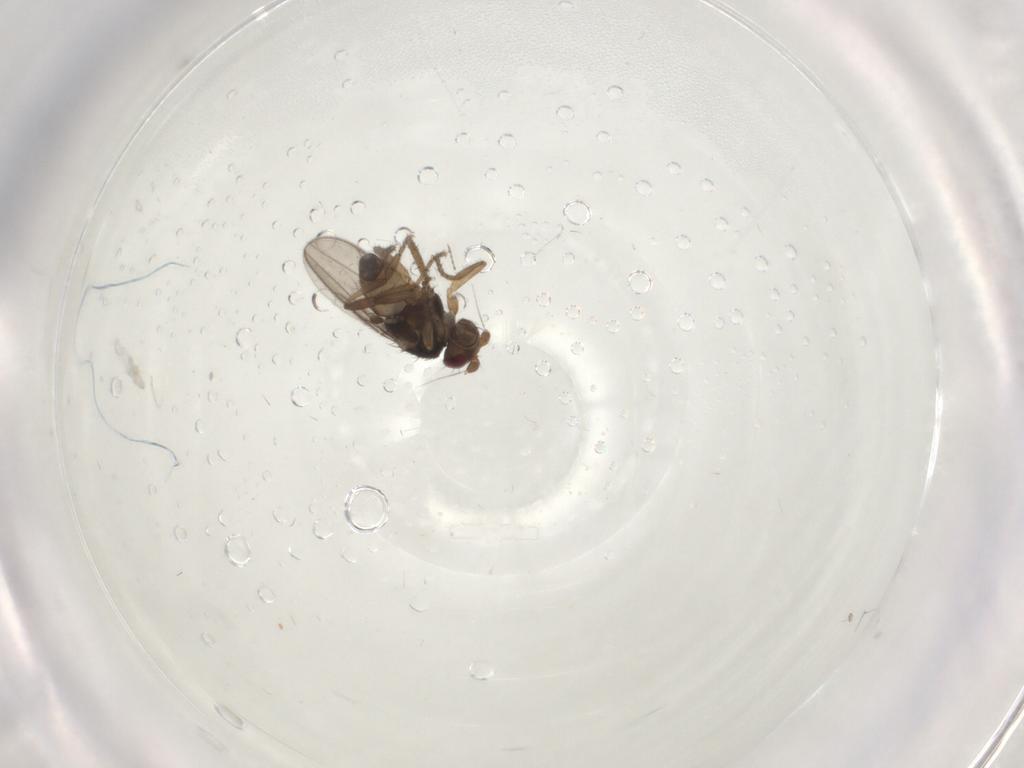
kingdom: Animalia
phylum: Arthropoda
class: Insecta
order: Diptera
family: Sphaeroceridae
